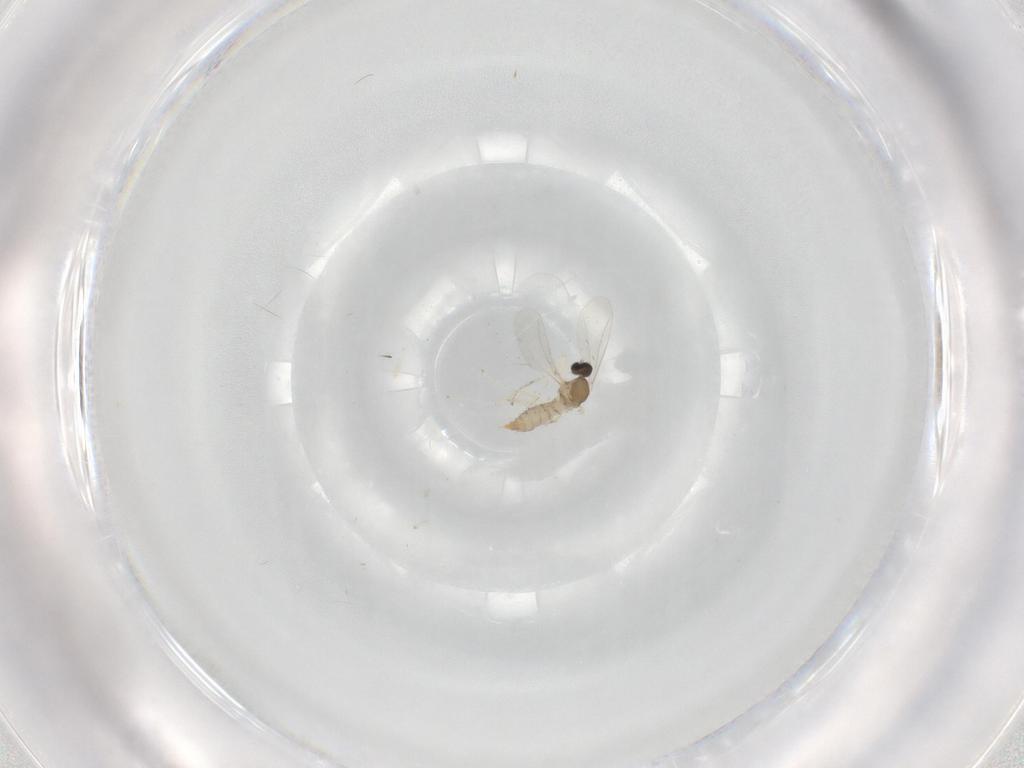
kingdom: Animalia
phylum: Arthropoda
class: Insecta
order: Diptera
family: Cecidomyiidae
